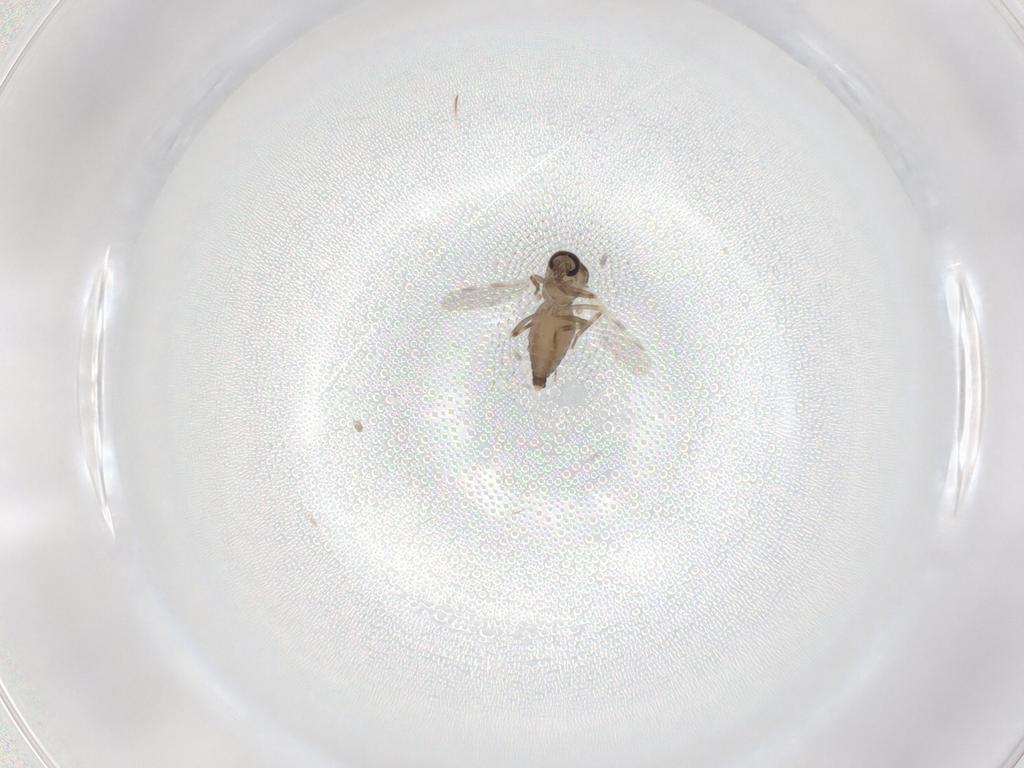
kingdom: Animalia
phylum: Arthropoda
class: Insecta
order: Diptera
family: Ceratopogonidae
